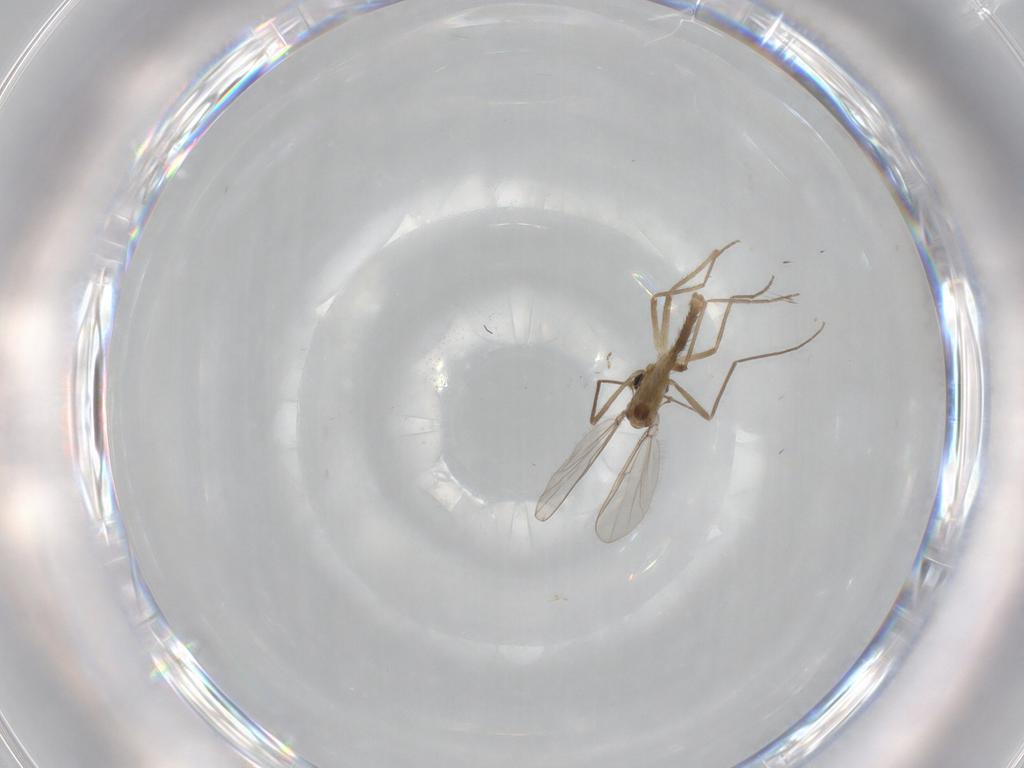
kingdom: Animalia
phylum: Arthropoda
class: Insecta
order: Diptera
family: Chironomidae
